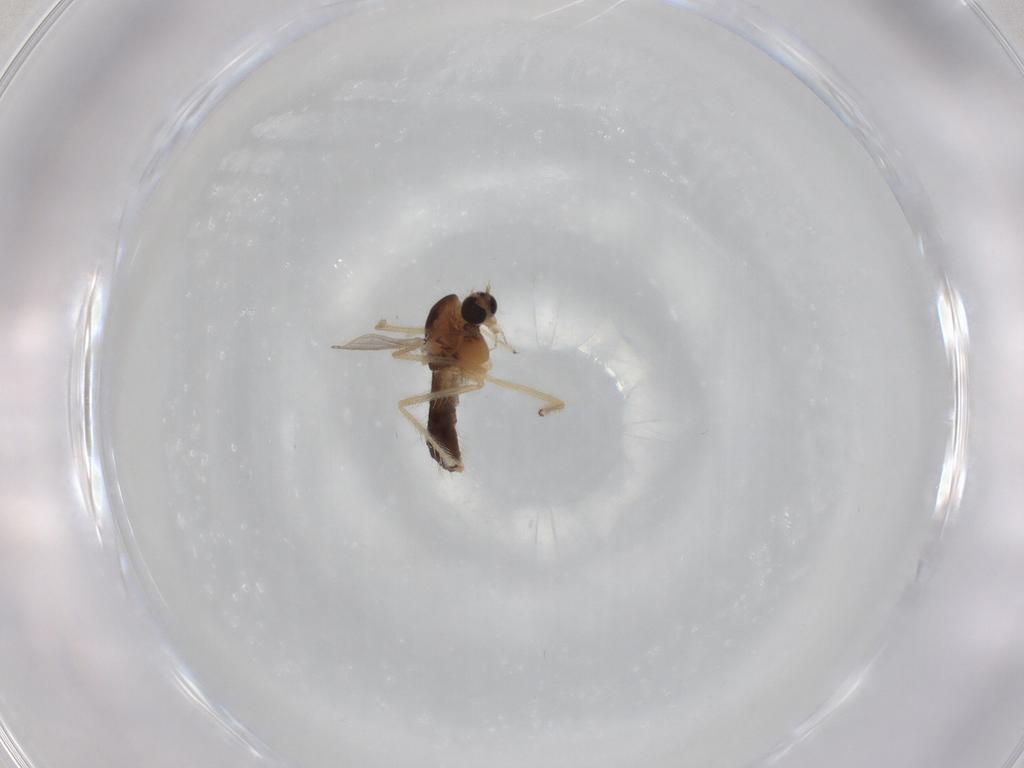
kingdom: Animalia
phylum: Arthropoda
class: Insecta
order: Diptera
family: Chironomidae
